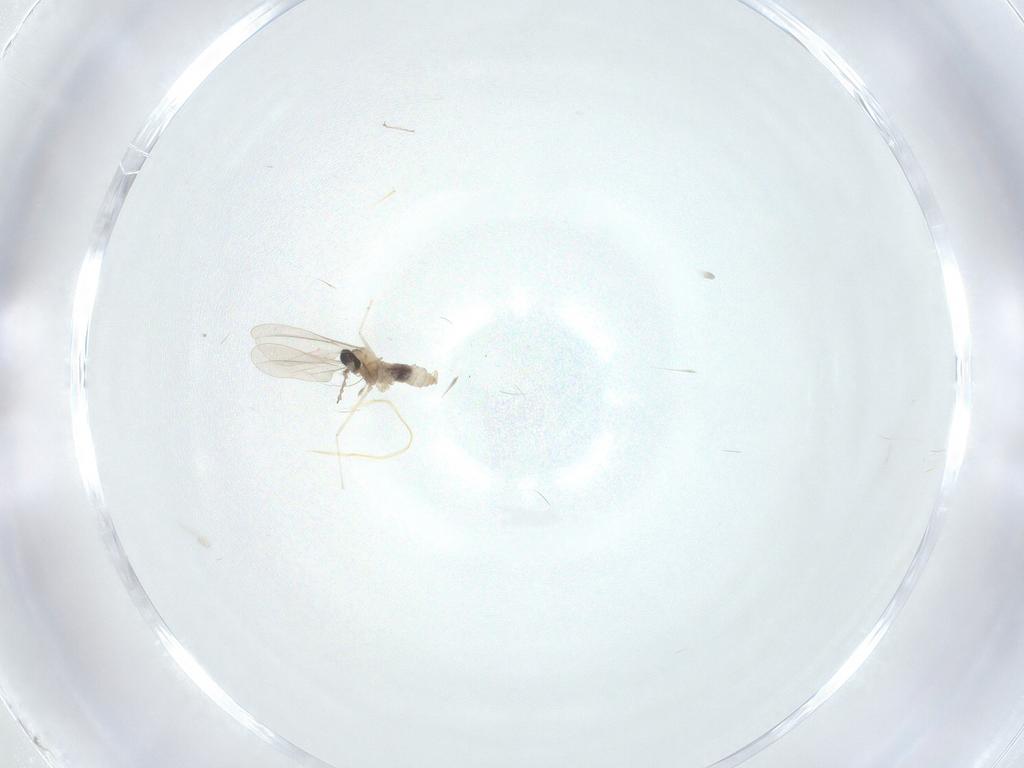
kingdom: Animalia
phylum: Arthropoda
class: Insecta
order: Diptera
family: Cecidomyiidae
